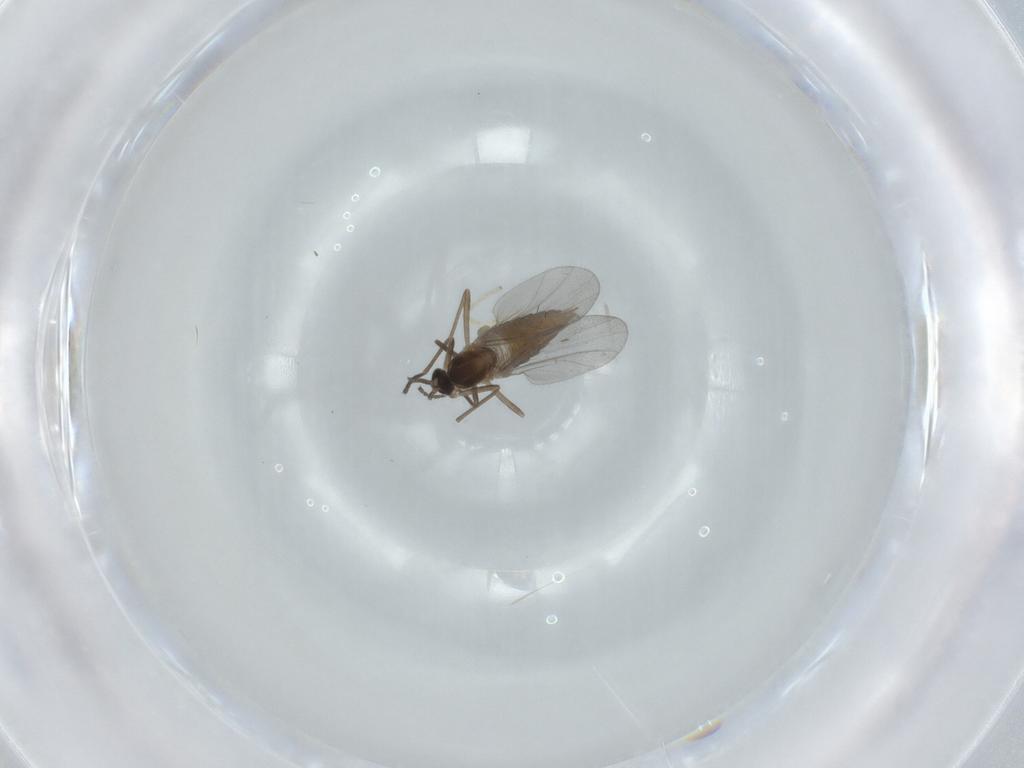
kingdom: Animalia
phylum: Arthropoda
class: Insecta
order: Diptera
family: Cecidomyiidae
